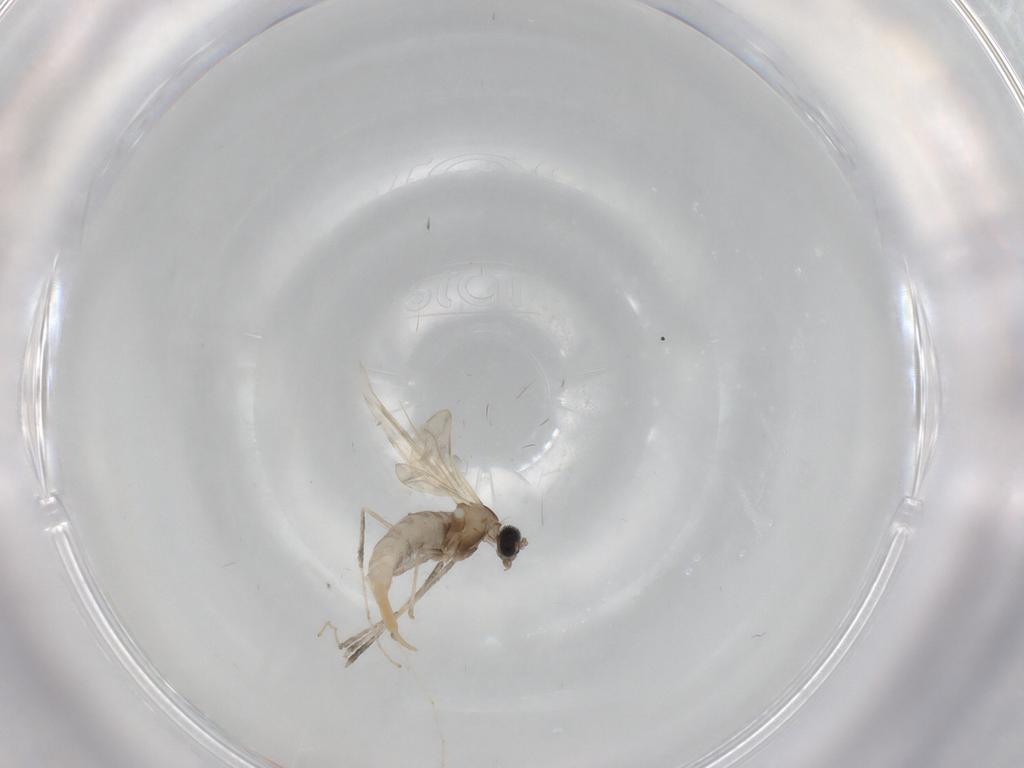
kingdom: Animalia
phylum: Arthropoda
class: Insecta
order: Diptera
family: Cecidomyiidae
